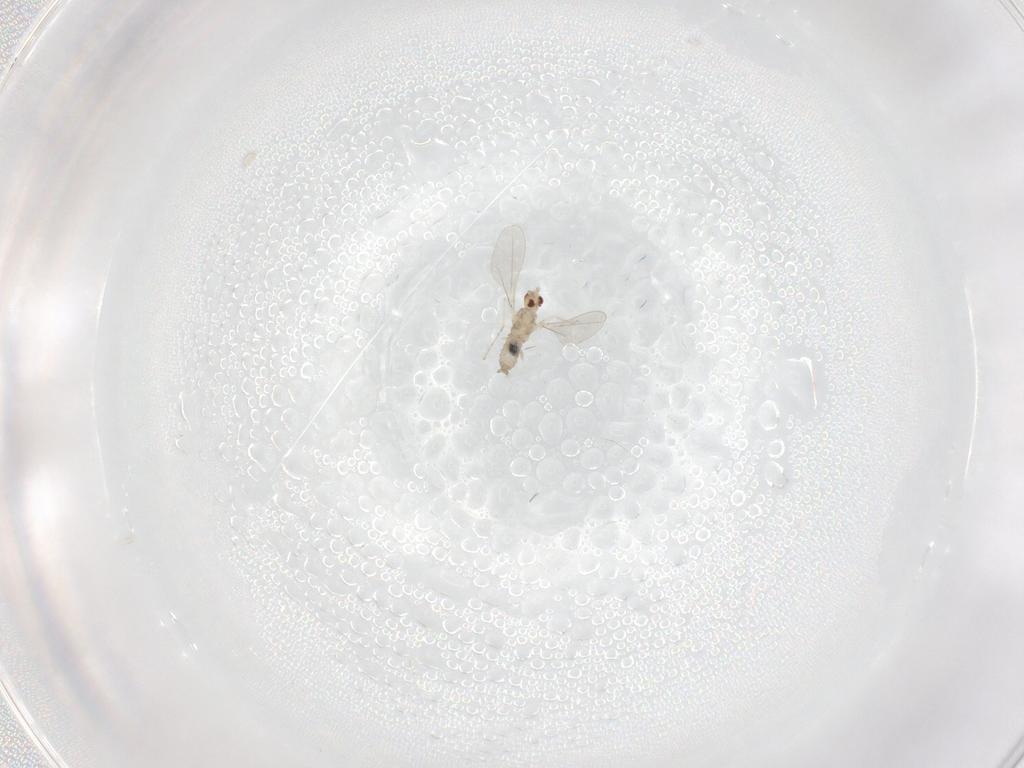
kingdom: Animalia
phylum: Arthropoda
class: Insecta
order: Diptera
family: Cecidomyiidae
